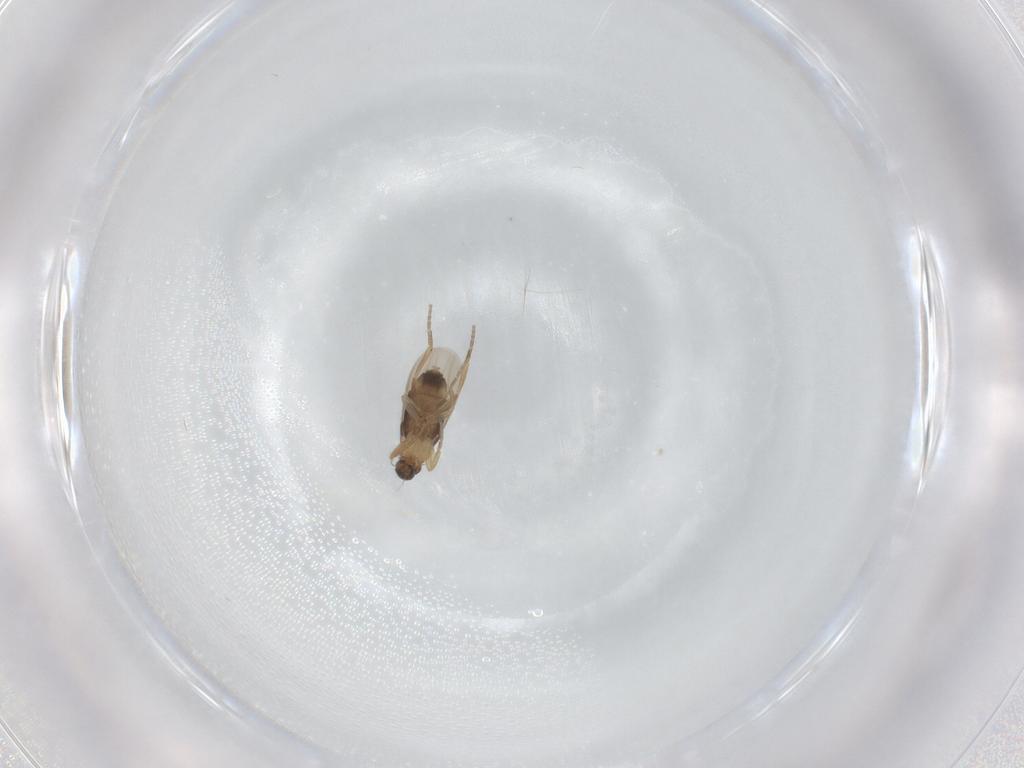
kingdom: Animalia
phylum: Arthropoda
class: Insecta
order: Diptera
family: Phoridae
